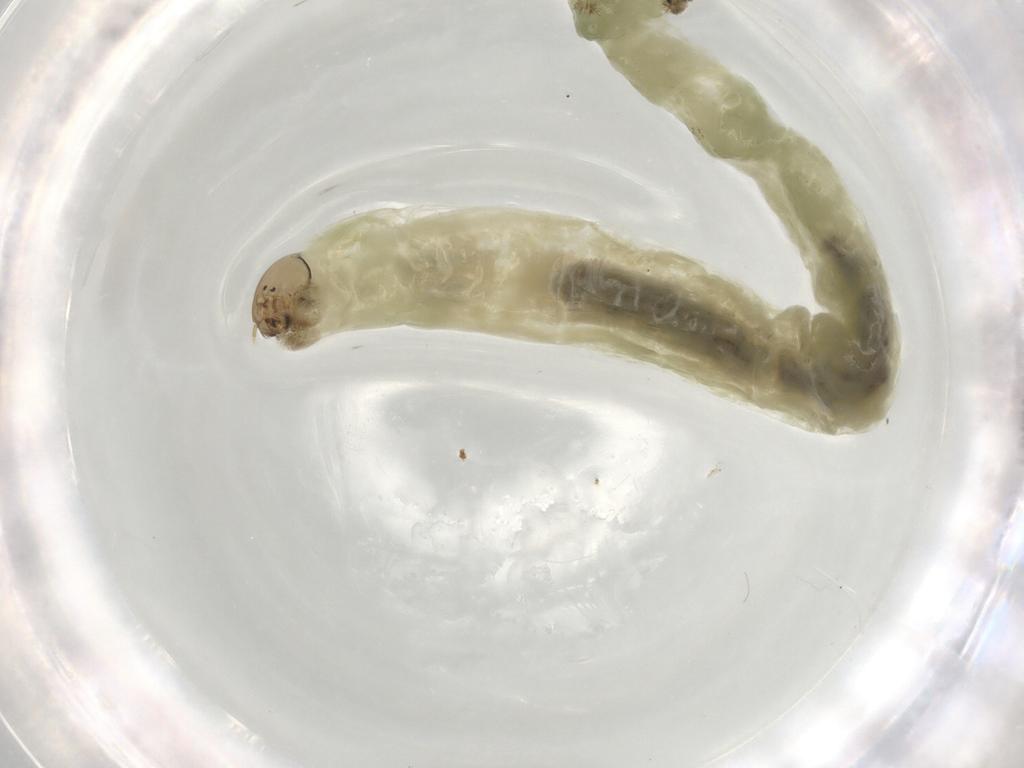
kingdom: Animalia
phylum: Arthropoda
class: Insecta
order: Diptera
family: Chironomidae
